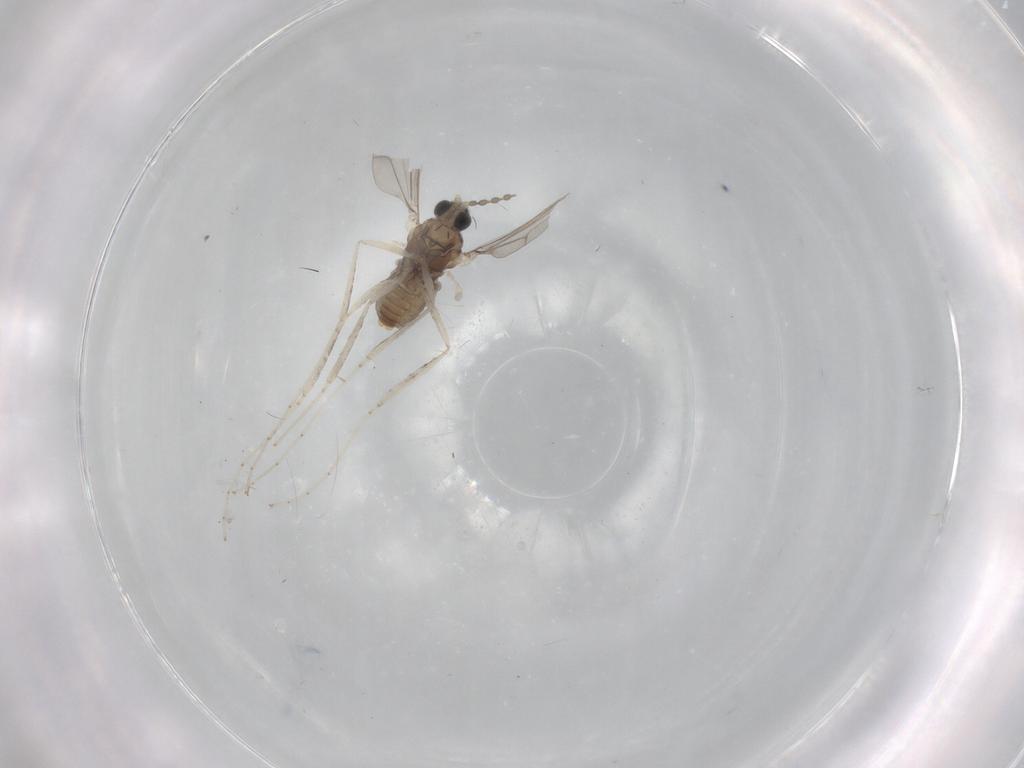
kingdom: Animalia
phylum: Arthropoda
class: Insecta
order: Diptera
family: Cecidomyiidae
